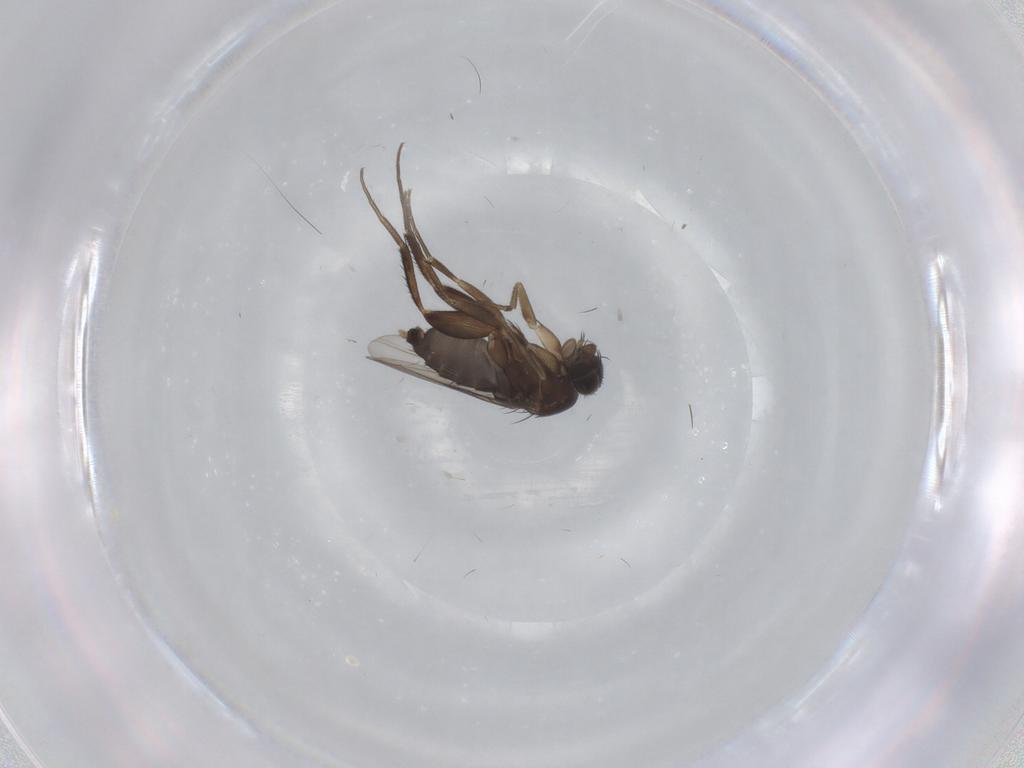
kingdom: Animalia
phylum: Arthropoda
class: Insecta
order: Diptera
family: Phoridae
